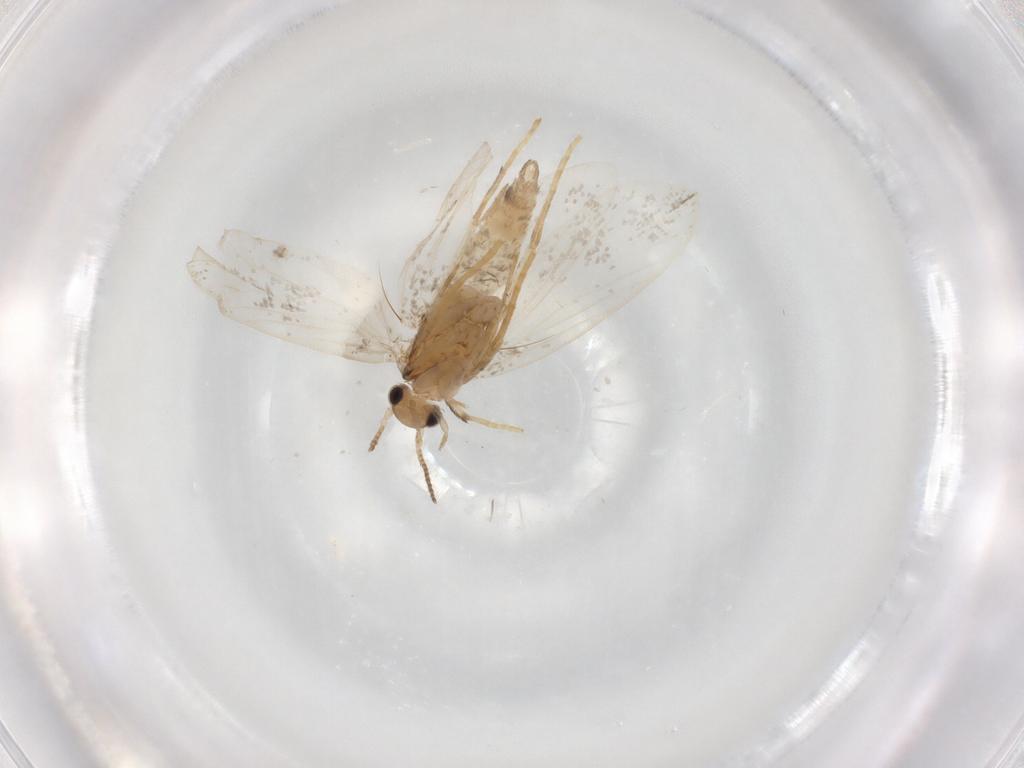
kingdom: Animalia
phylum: Arthropoda
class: Insecta
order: Lepidoptera
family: Psychidae
